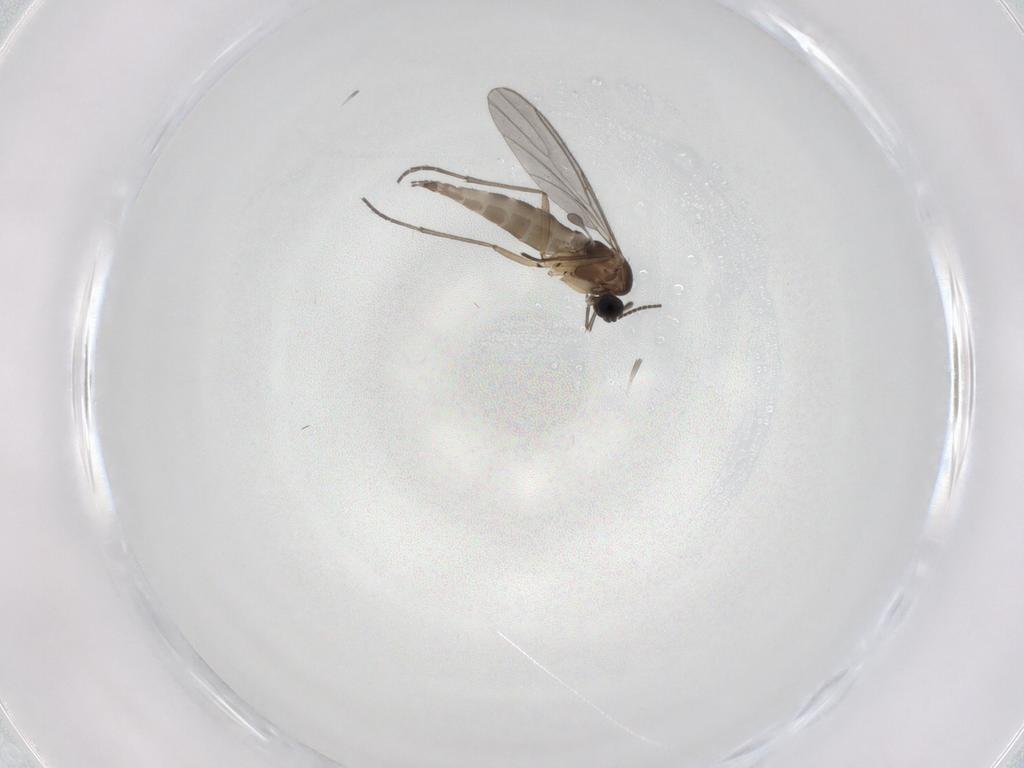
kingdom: Animalia
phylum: Arthropoda
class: Insecta
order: Diptera
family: Sciaridae
